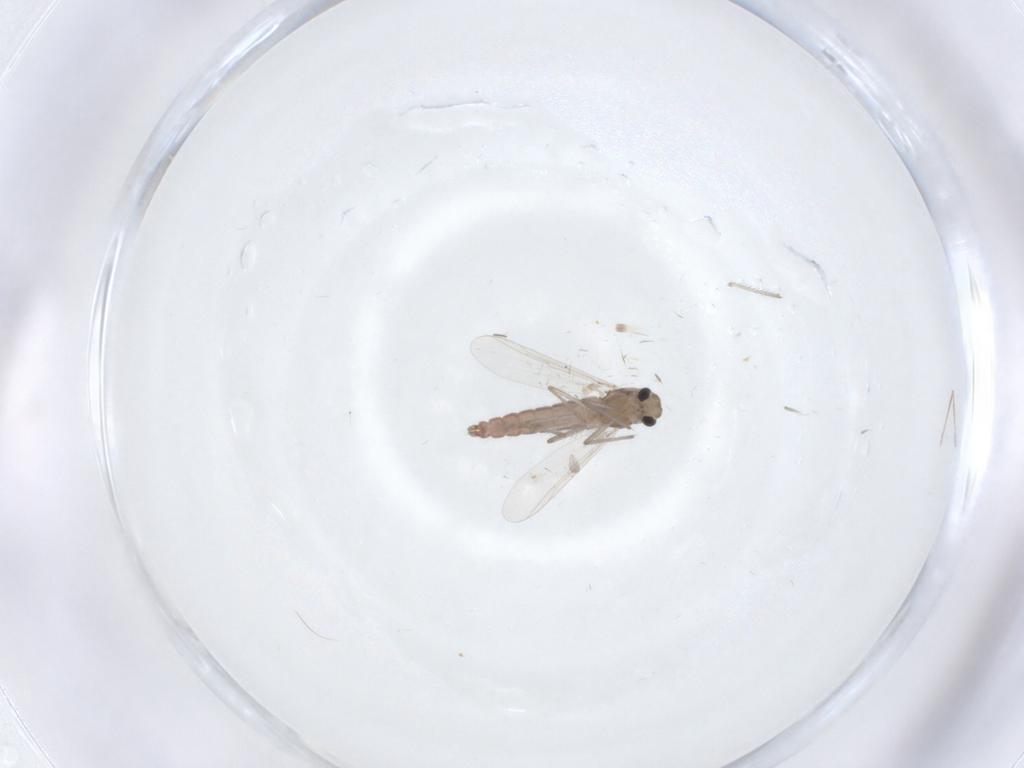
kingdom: Animalia
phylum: Arthropoda
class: Insecta
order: Diptera
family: Chironomidae
